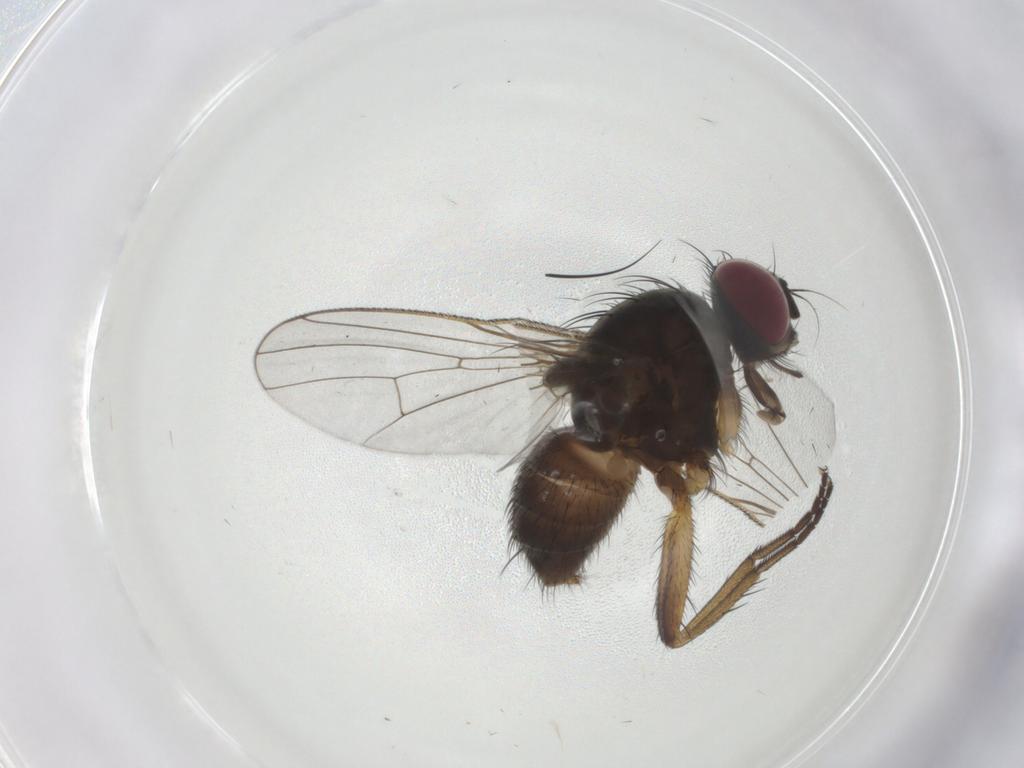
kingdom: Animalia
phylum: Arthropoda
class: Insecta
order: Diptera
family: Muscidae
